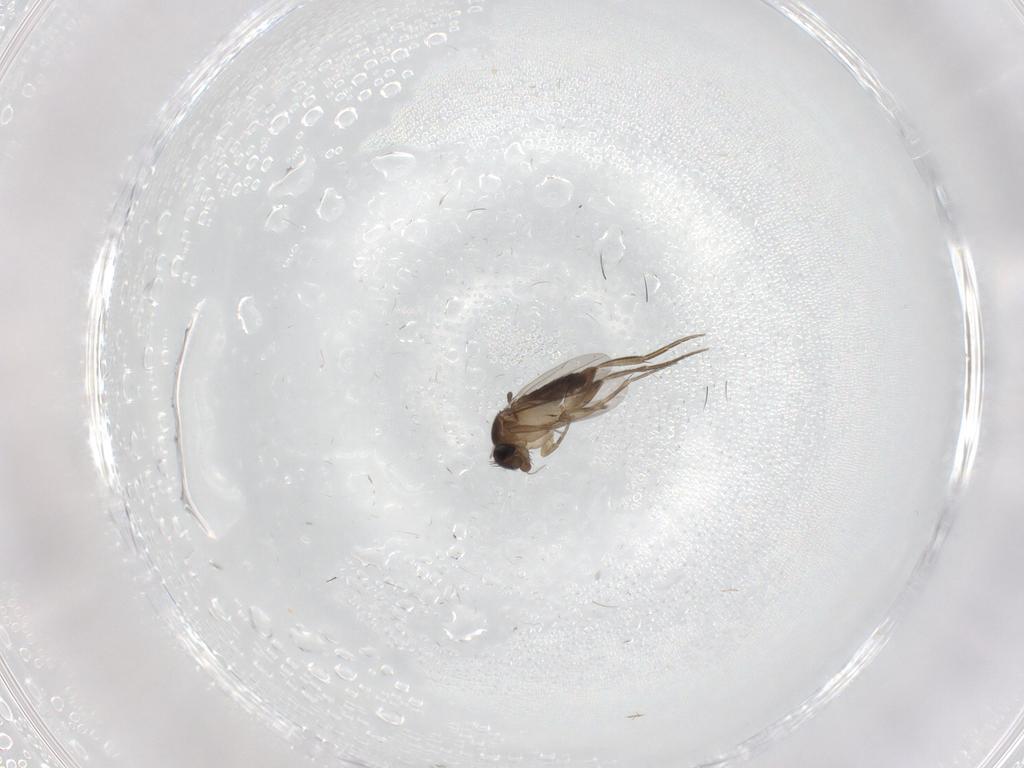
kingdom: Animalia
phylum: Arthropoda
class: Insecta
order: Diptera
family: Phoridae
